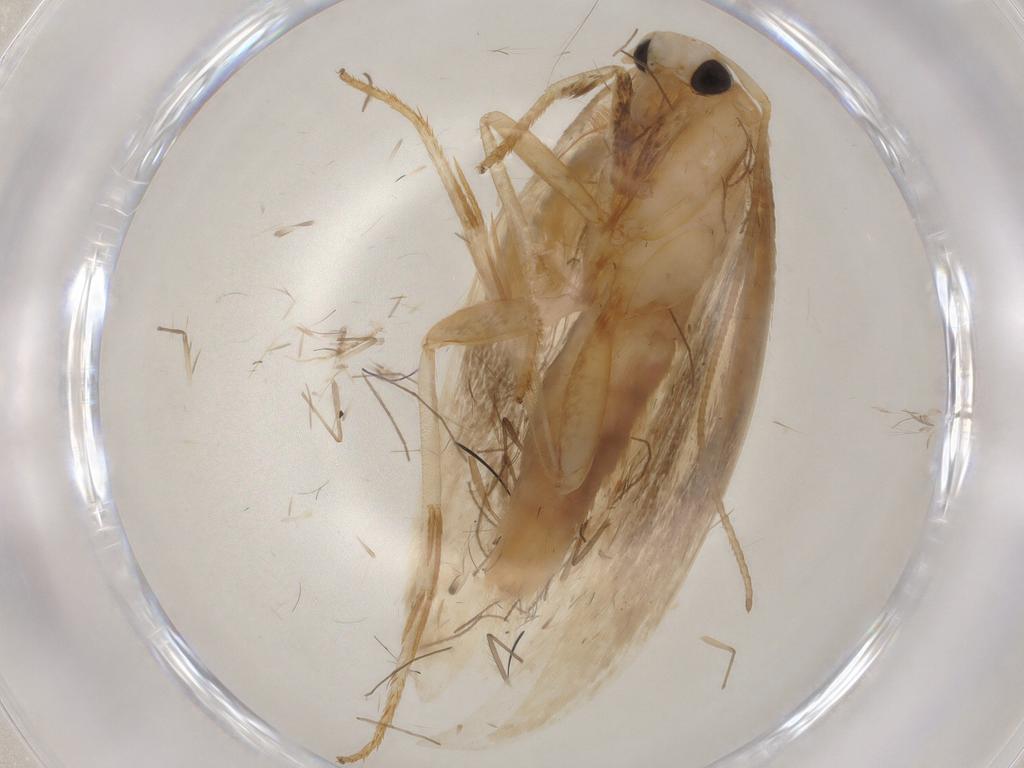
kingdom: Animalia
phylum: Arthropoda
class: Insecta
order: Lepidoptera
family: Geometridae
